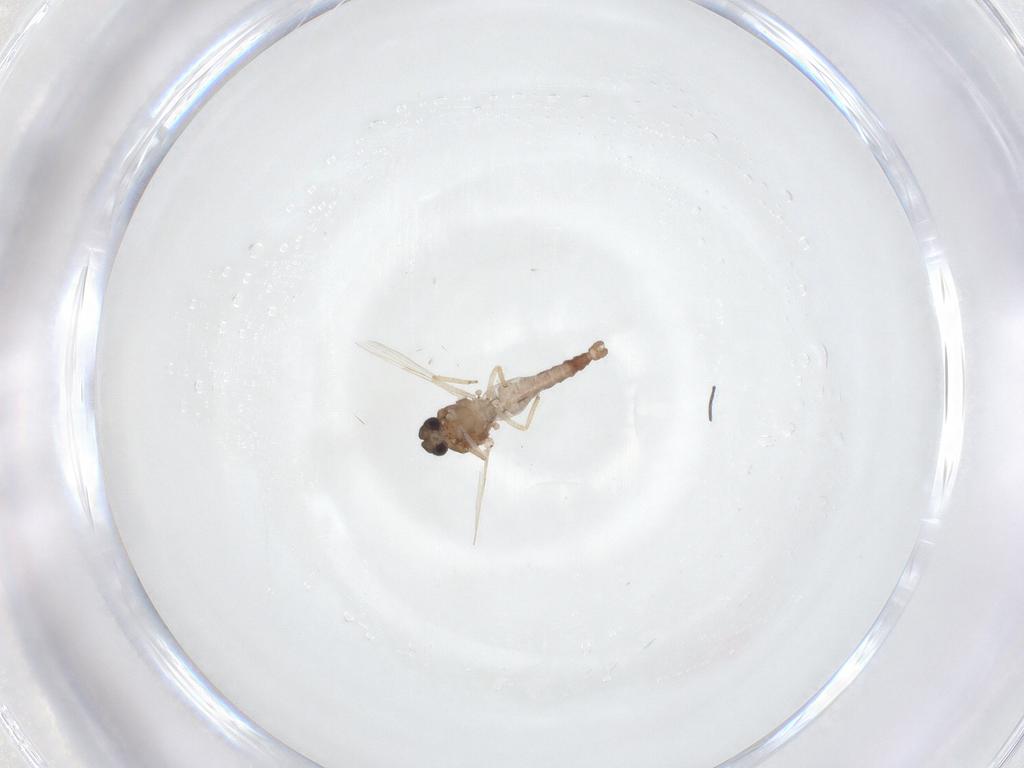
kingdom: Animalia
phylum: Arthropoda
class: Insecta
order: Diptera
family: Ceratopogonidae
